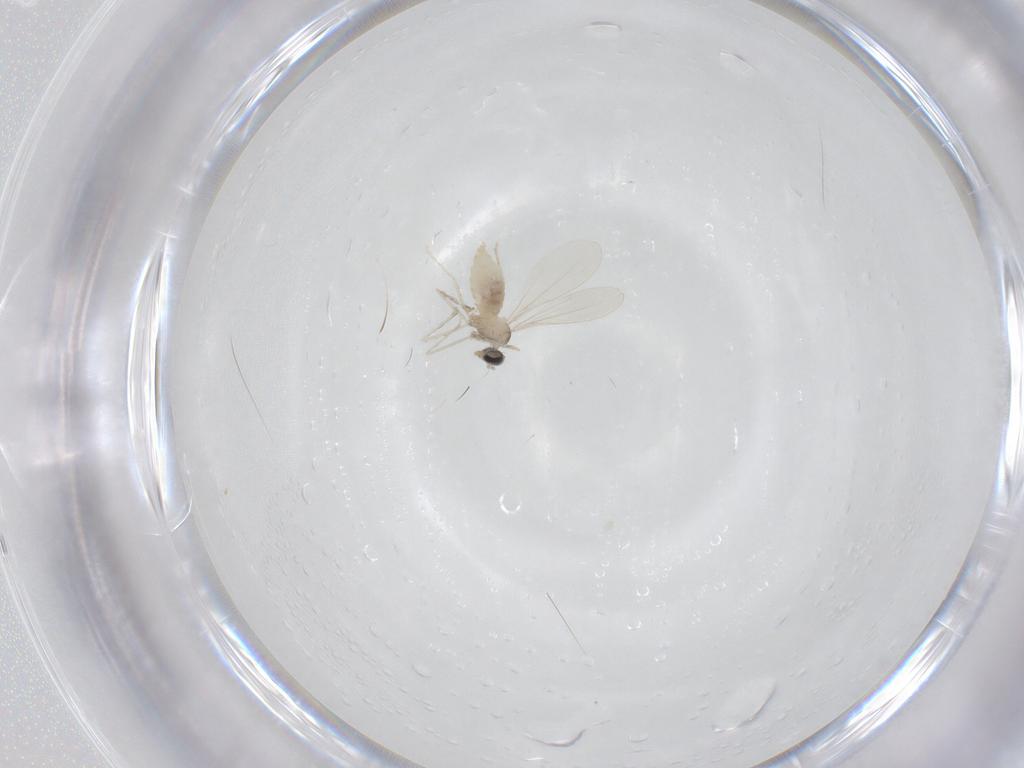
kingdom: Animalia
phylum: Arthropoda
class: Insecta
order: Diptera
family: Cecidomyiidae
